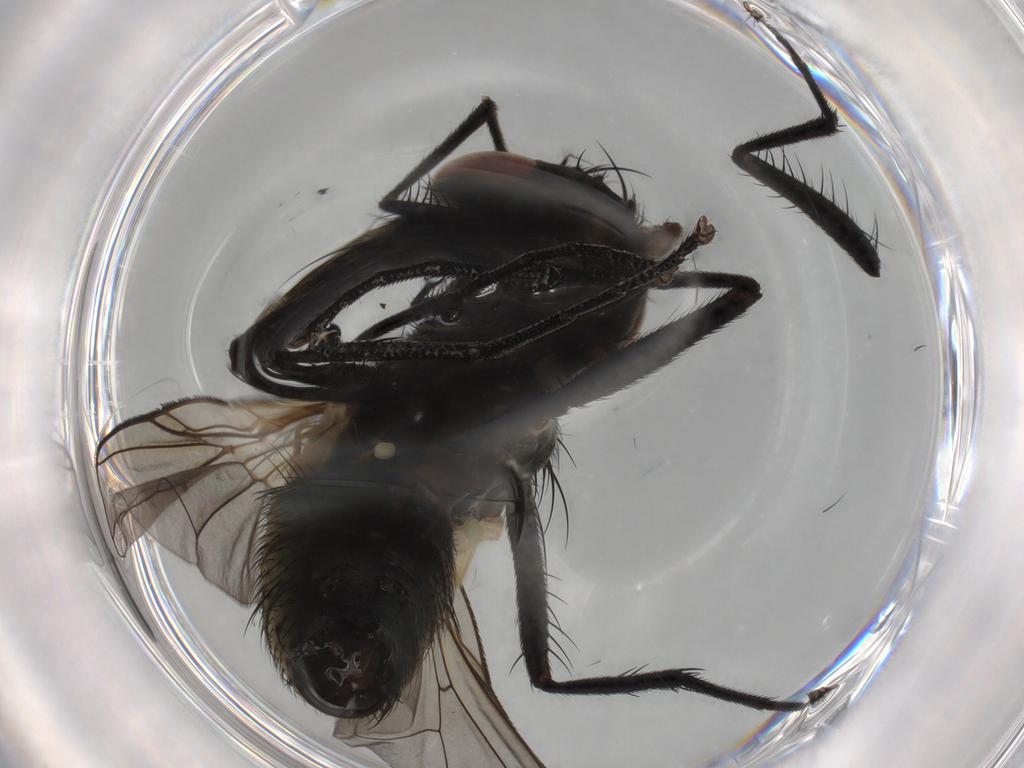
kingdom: Animalia
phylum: Arthropoda
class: Insecta
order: Diptera
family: Muscidae
